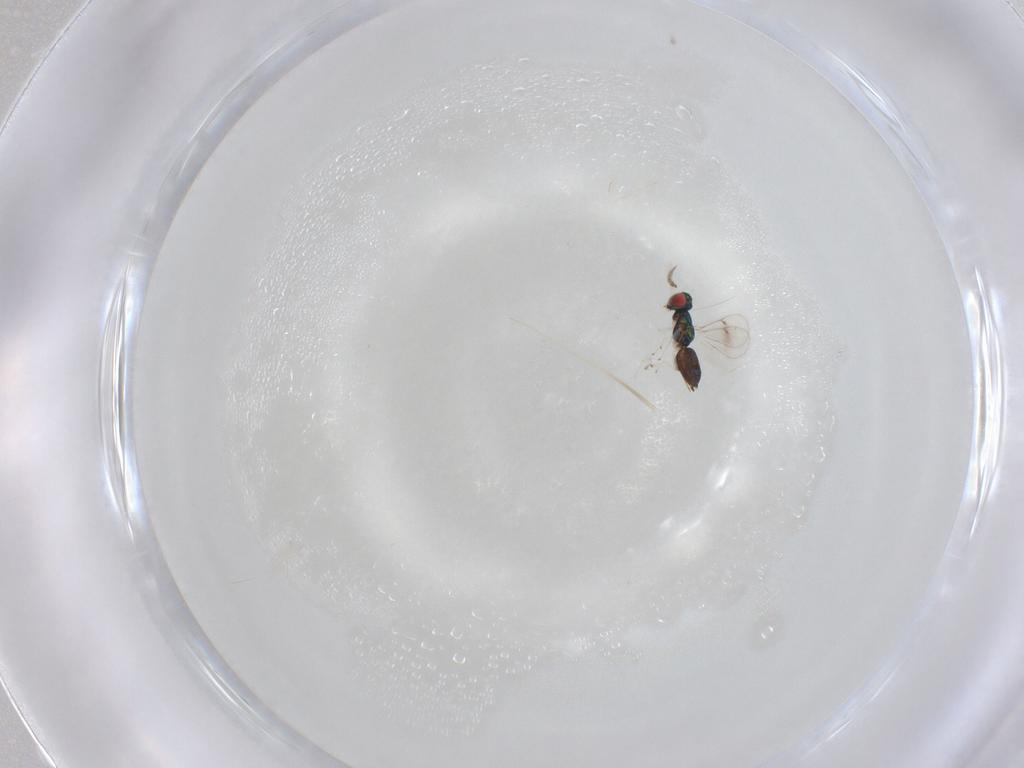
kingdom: Animalia
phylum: Arthropoda
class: Insecta
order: Hymenoptera
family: Eulophidae
